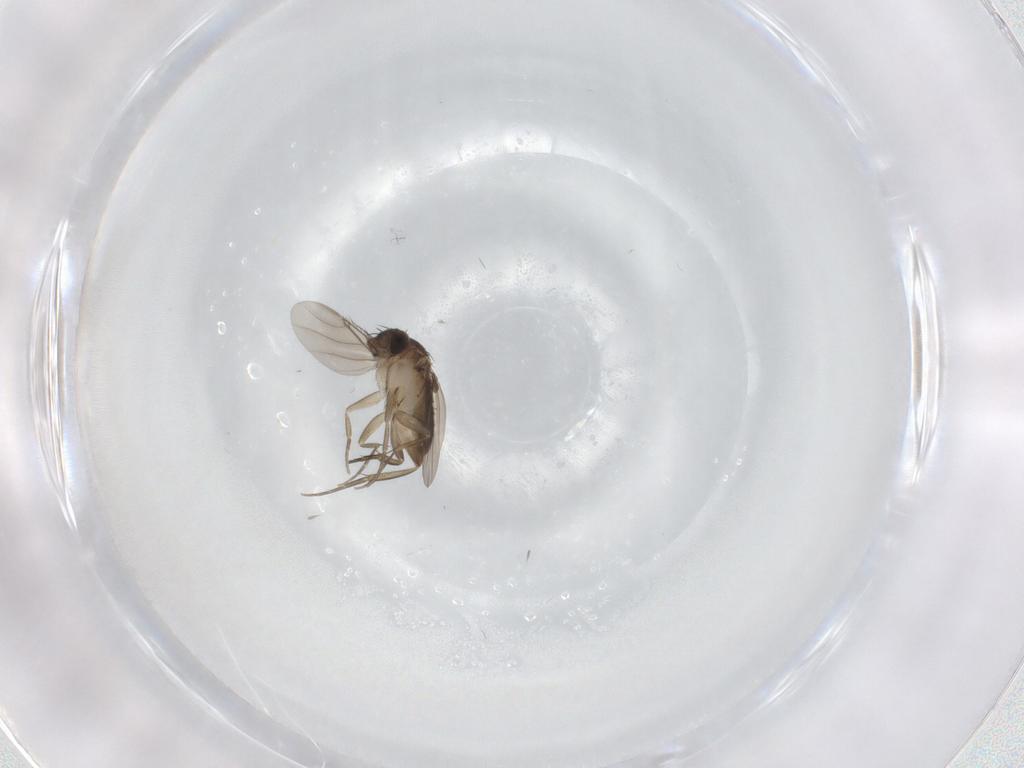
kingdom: Animalia
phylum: Arthropoda
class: Insecta
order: Diptera
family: Phoridae
